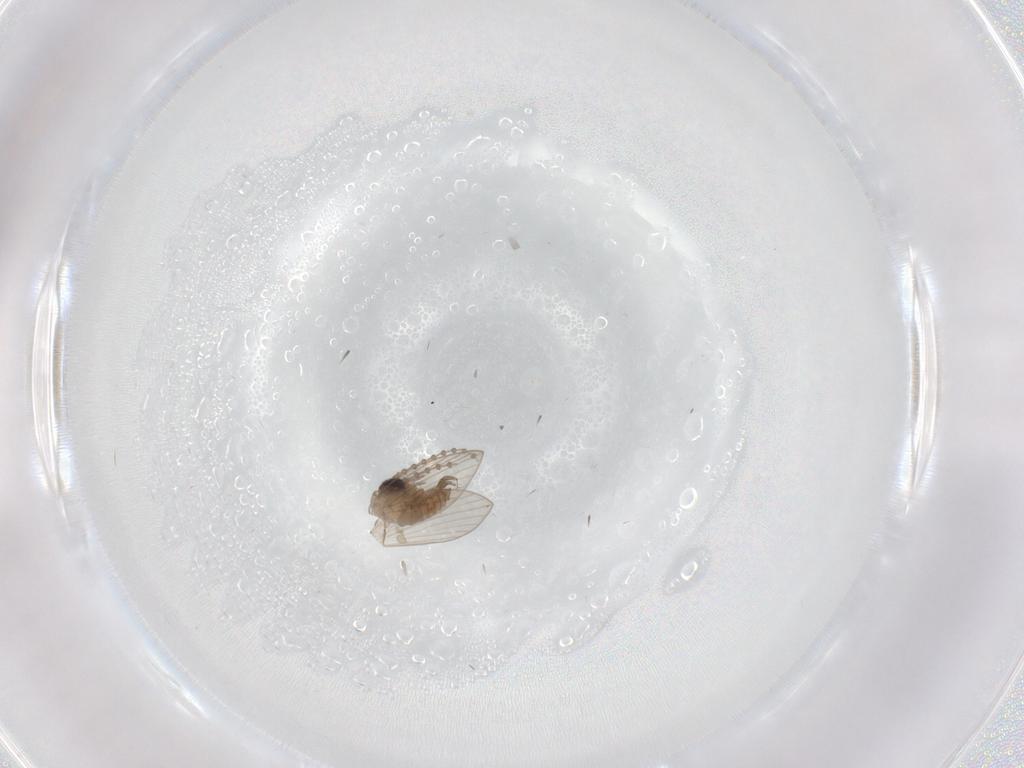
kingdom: Animalia
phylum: Arthropoda
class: Insecta
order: Diptera
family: Psychodidae
